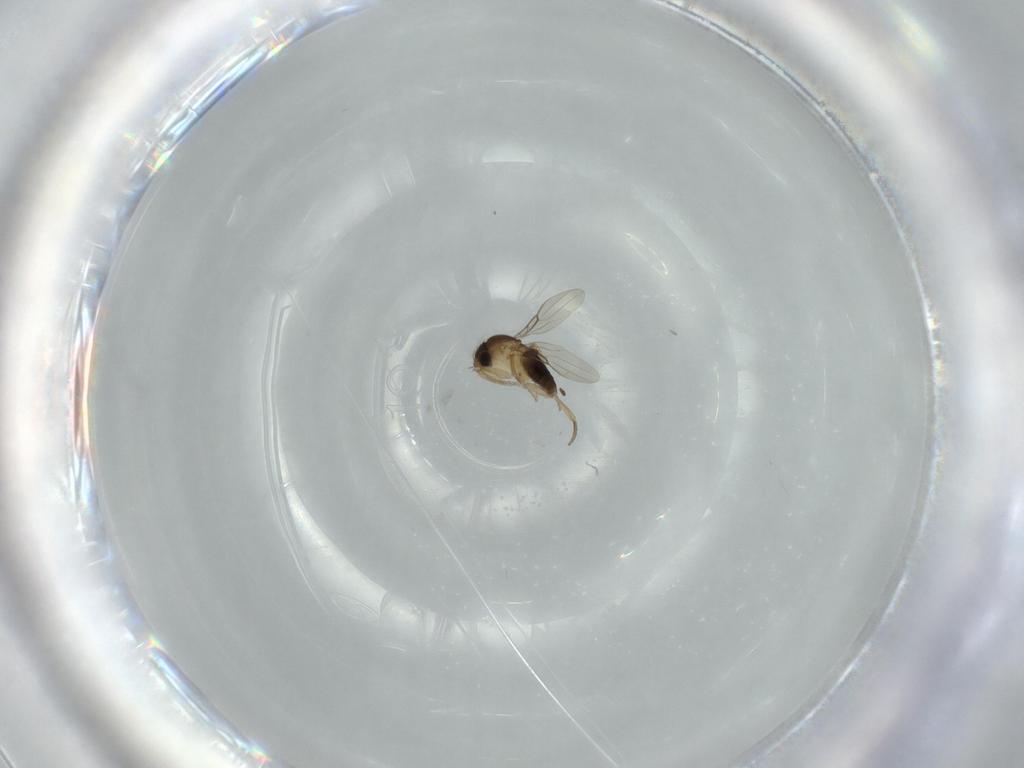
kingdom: Animalia
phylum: Arthropoda
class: Insecta
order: Diptera
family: Phoridae
